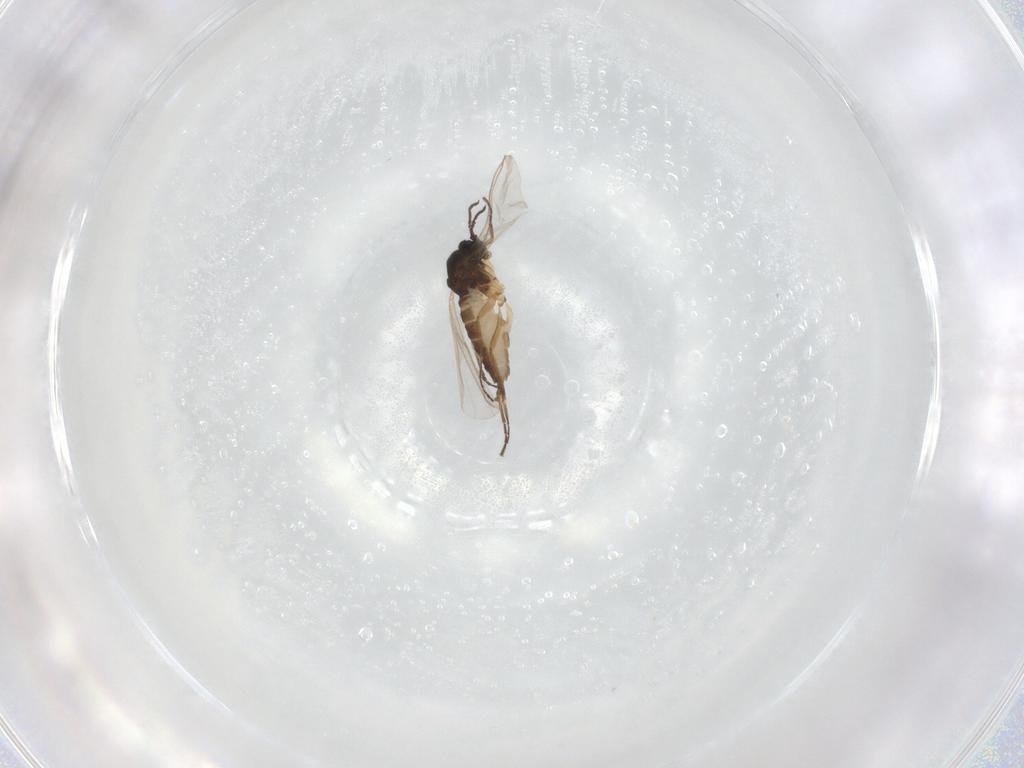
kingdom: Animalia
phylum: Arthropoda
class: Insecta
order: Diptera
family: Sciaridae
